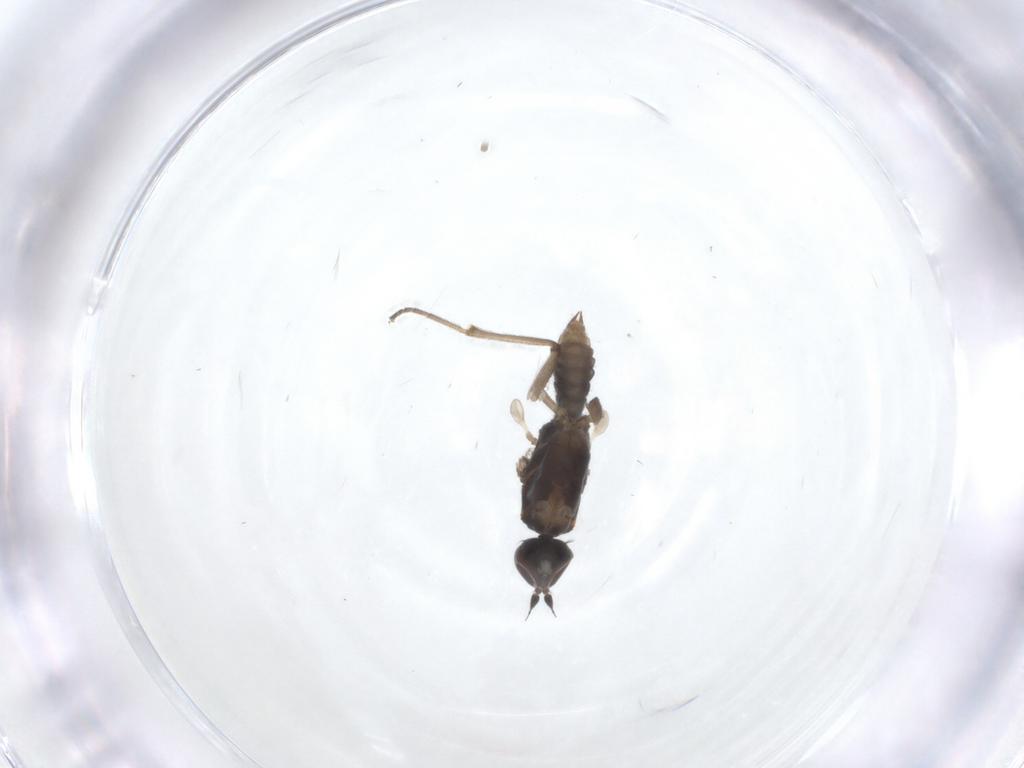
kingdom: Animalia
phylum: Arthropoda
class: Insecta
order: Diptera
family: Empididae
